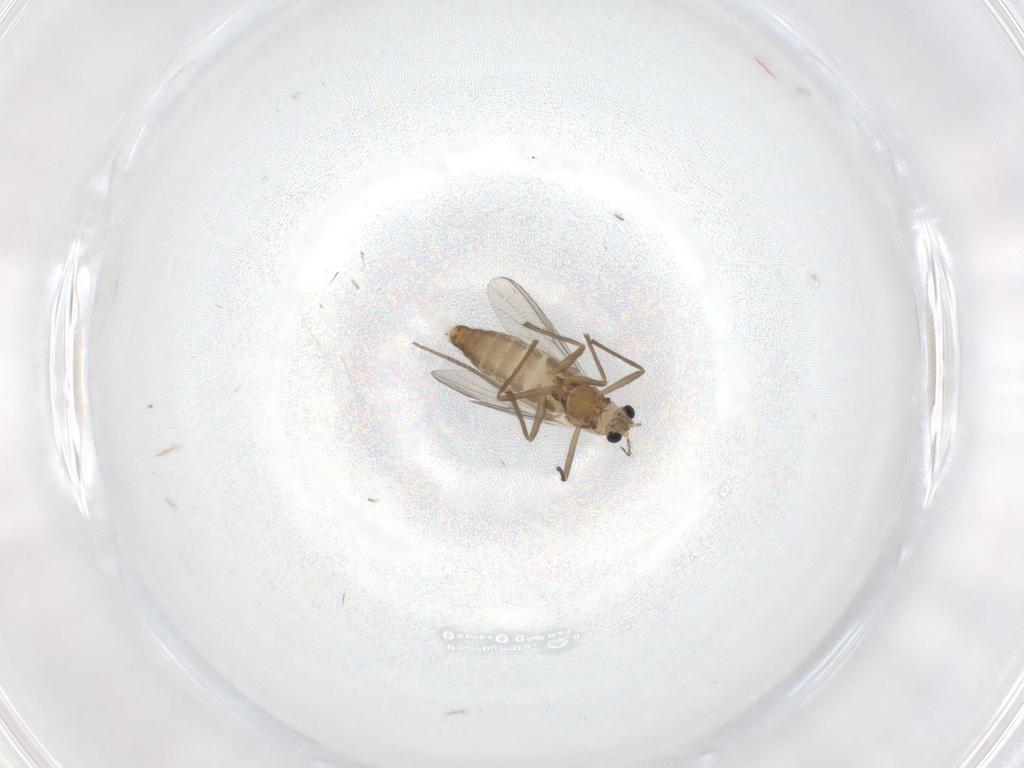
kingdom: Animalia
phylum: Arthropoda
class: Insecta
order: Diptera
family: Chironomidae
